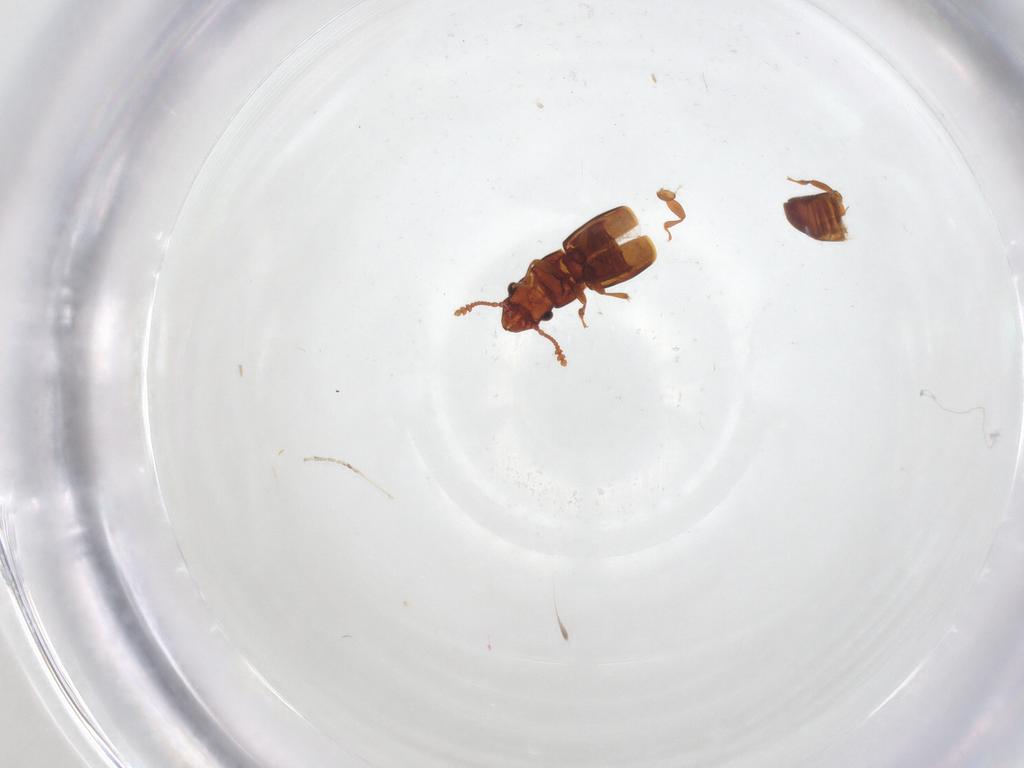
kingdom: Animalia
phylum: Arthropoda
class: Insecta
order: Coleoptera
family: Smicripidae
